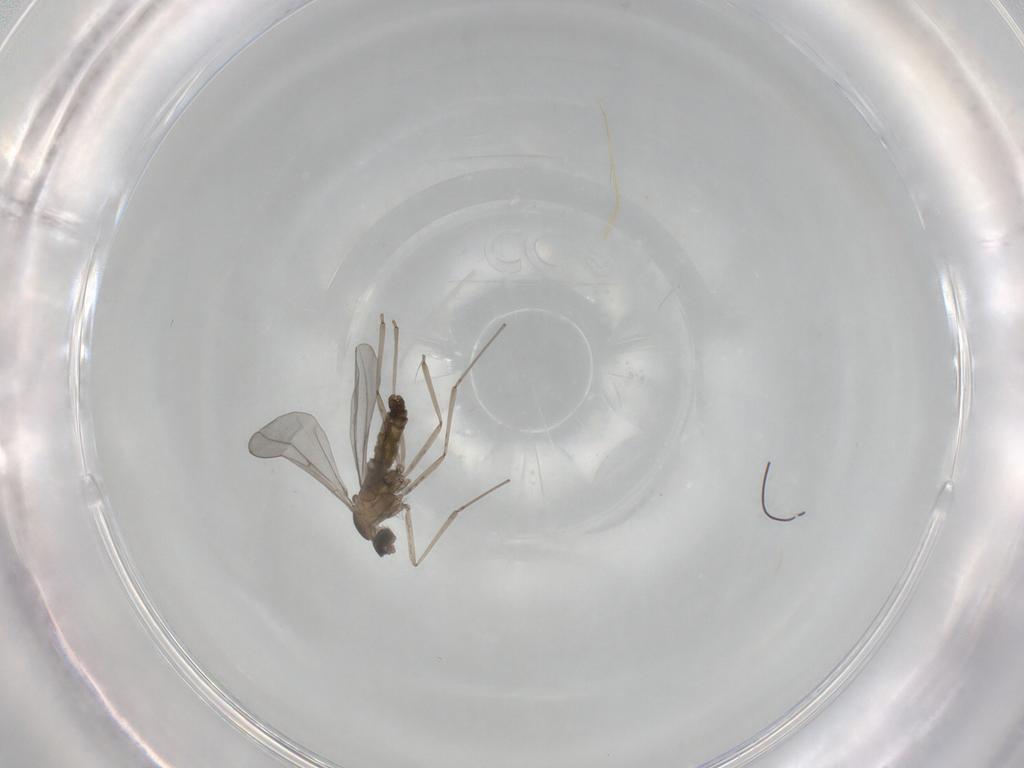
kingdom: Animalia
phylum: Arthropoda
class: Insecta
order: Diptera
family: Cecidomyiidae
